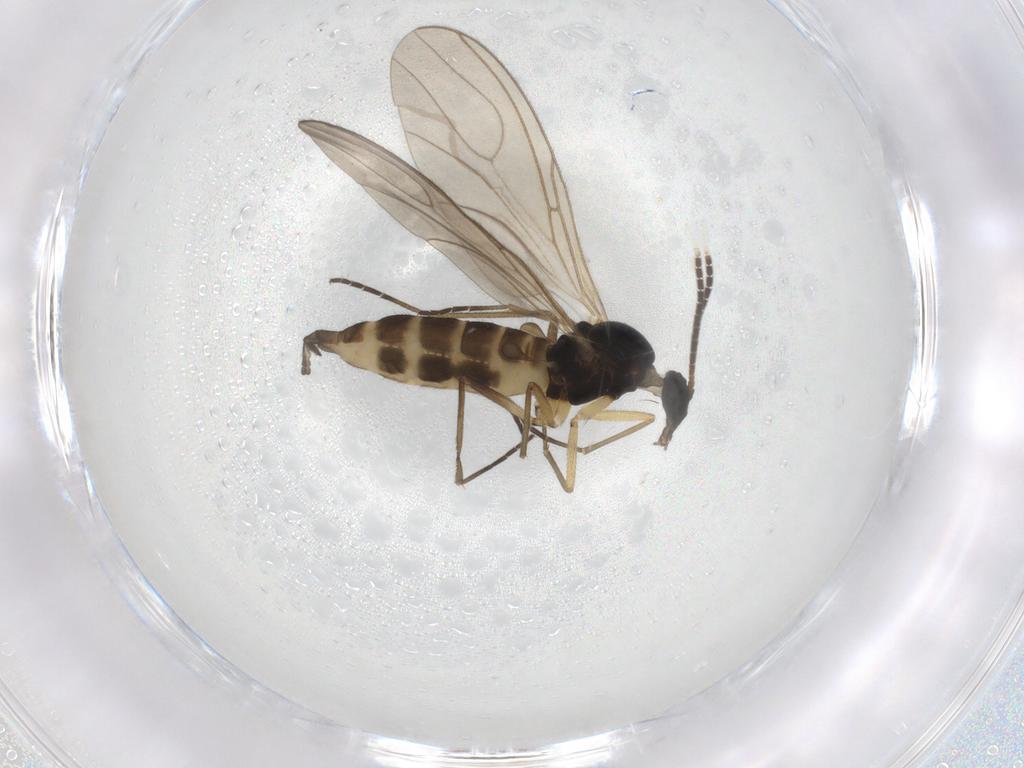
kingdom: Animalia
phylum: Arthropoda
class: Insecta
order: Diptera
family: Sciaridae
